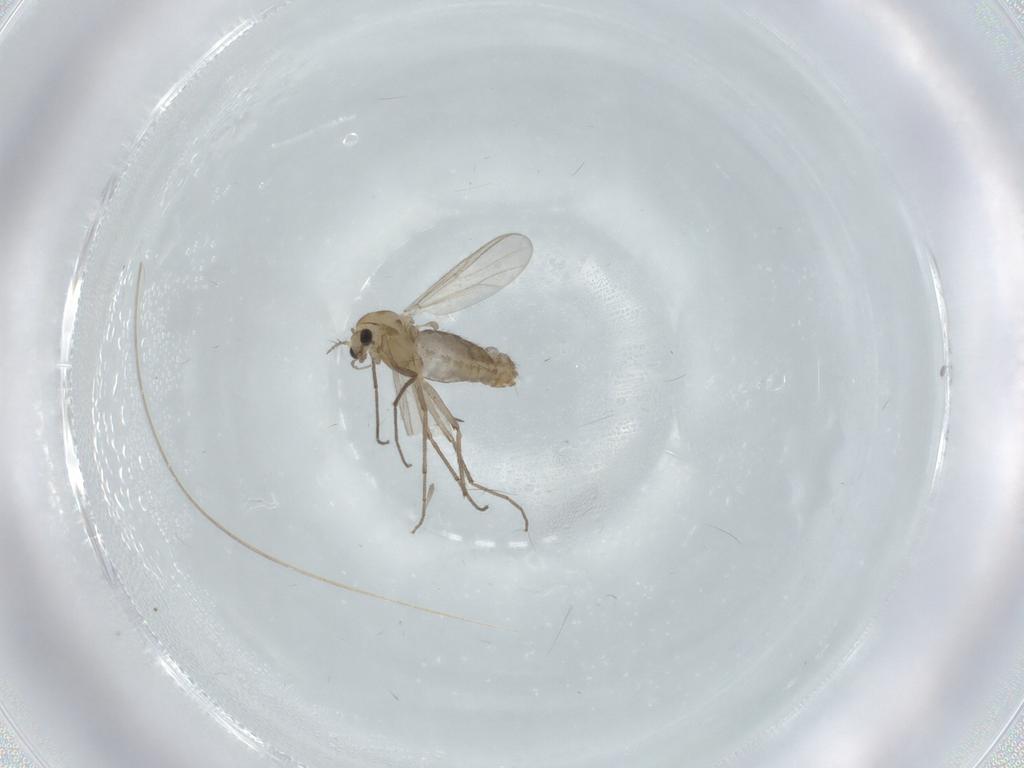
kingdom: Animalia
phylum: Arthropoda
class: Insecta
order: Diptera
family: Chironomidae
